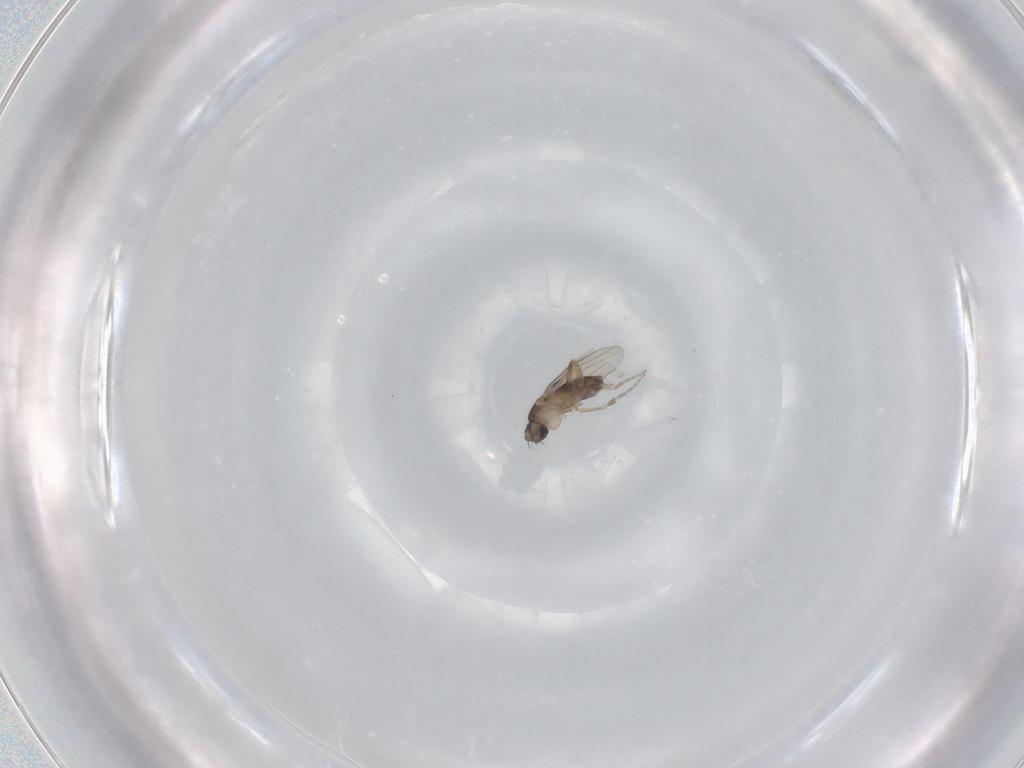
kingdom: Animalia
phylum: Arthropoda
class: Insecta
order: Diptera
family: Phoridae
